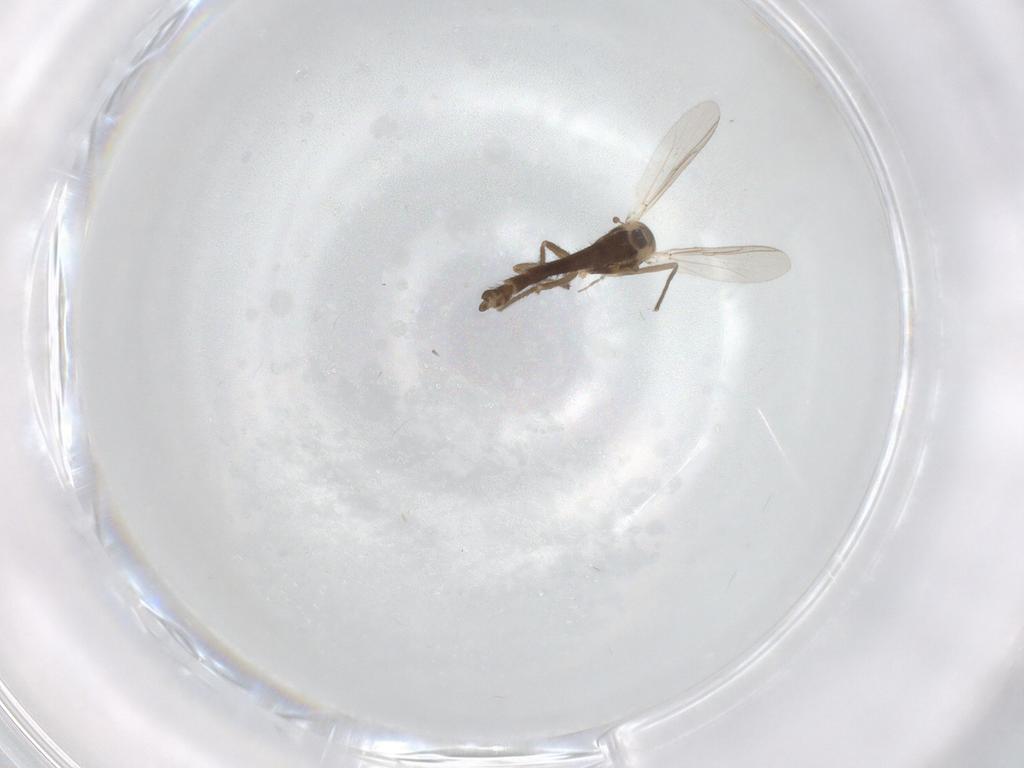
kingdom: Animalia
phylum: Arthropoda
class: Insecta
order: Diptera
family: Chironomidae
